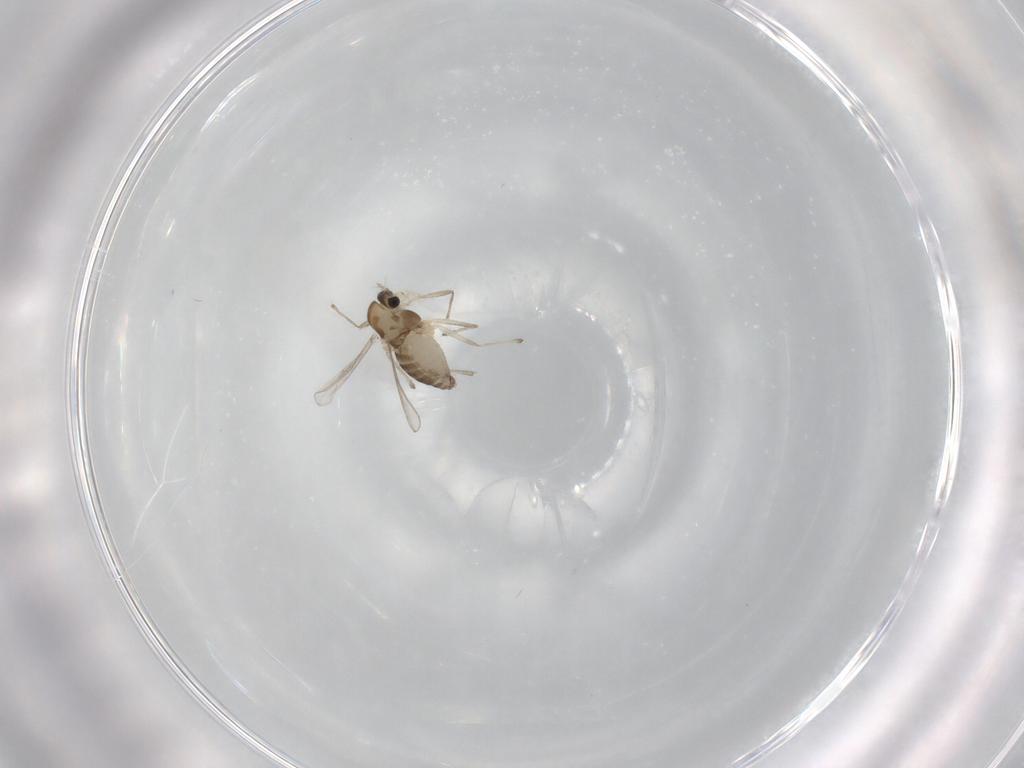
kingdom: Animalia
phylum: Arthropoda
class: Insecta
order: Diptera
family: Chironomidae
